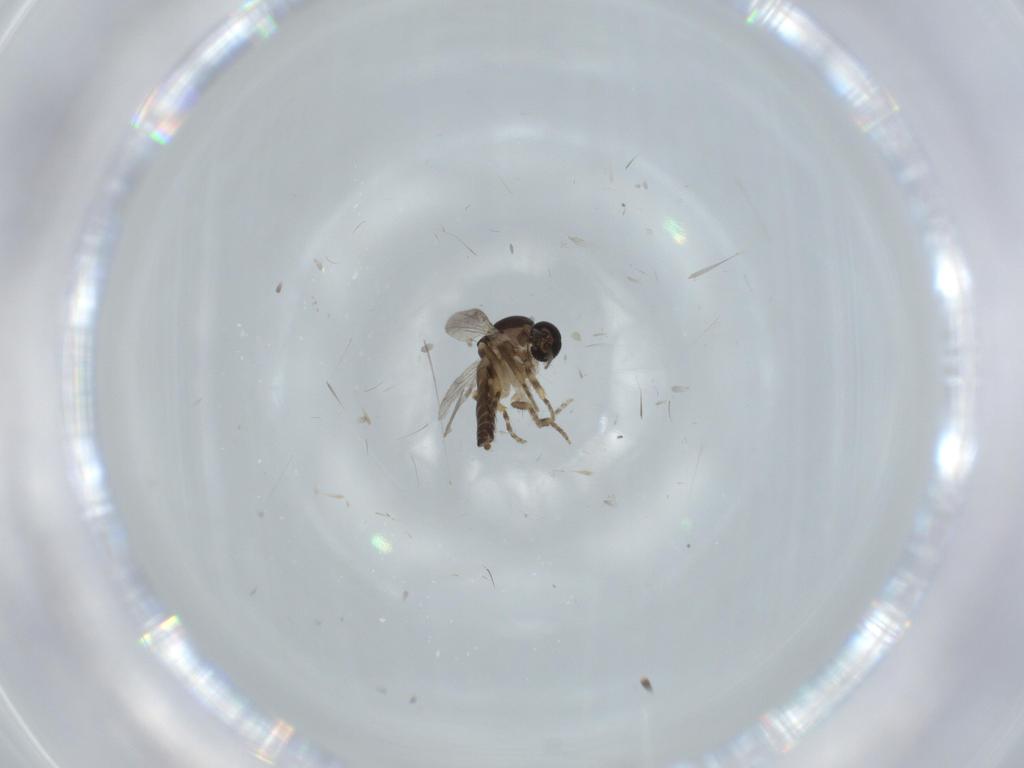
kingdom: Animalia
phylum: Arthropoda
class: Insecta
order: Diptera
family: Ceratopogonidae
